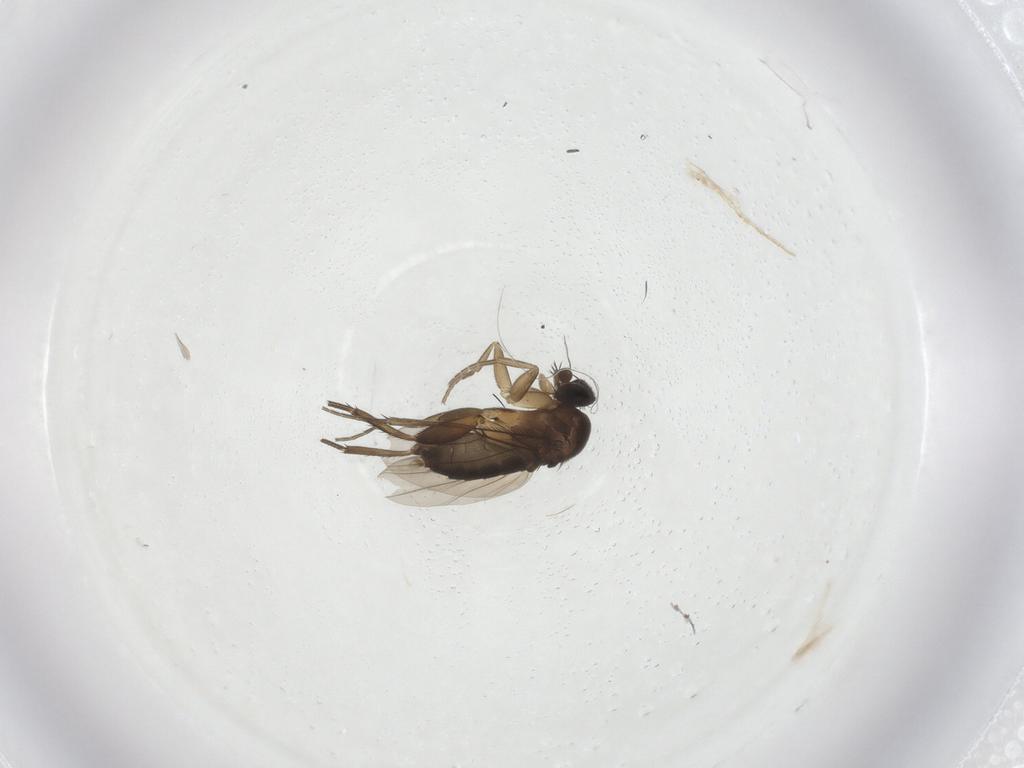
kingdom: Animalia
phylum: Arthropoda
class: Insecta
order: Diptera
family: Phoridae
